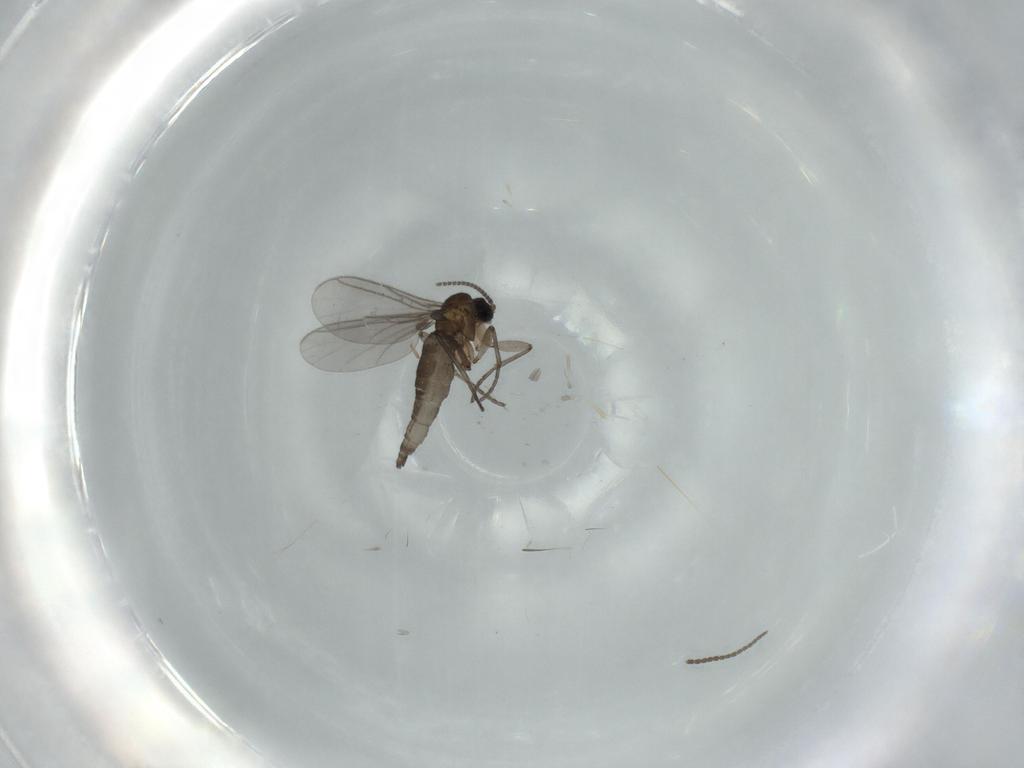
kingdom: Animalia
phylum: Arthropoda
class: Insecta
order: Diptera
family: Sciaridae
